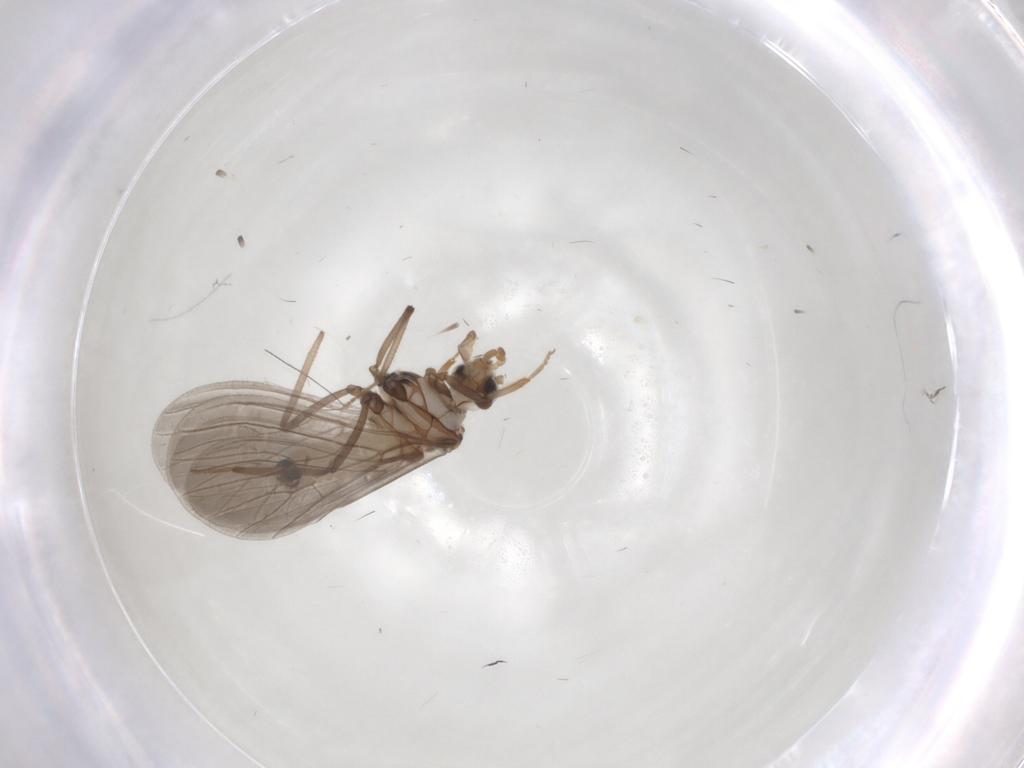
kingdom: Animalia
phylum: Arthropoda
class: Insecta
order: Neuroptera
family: Coniopterygidae
